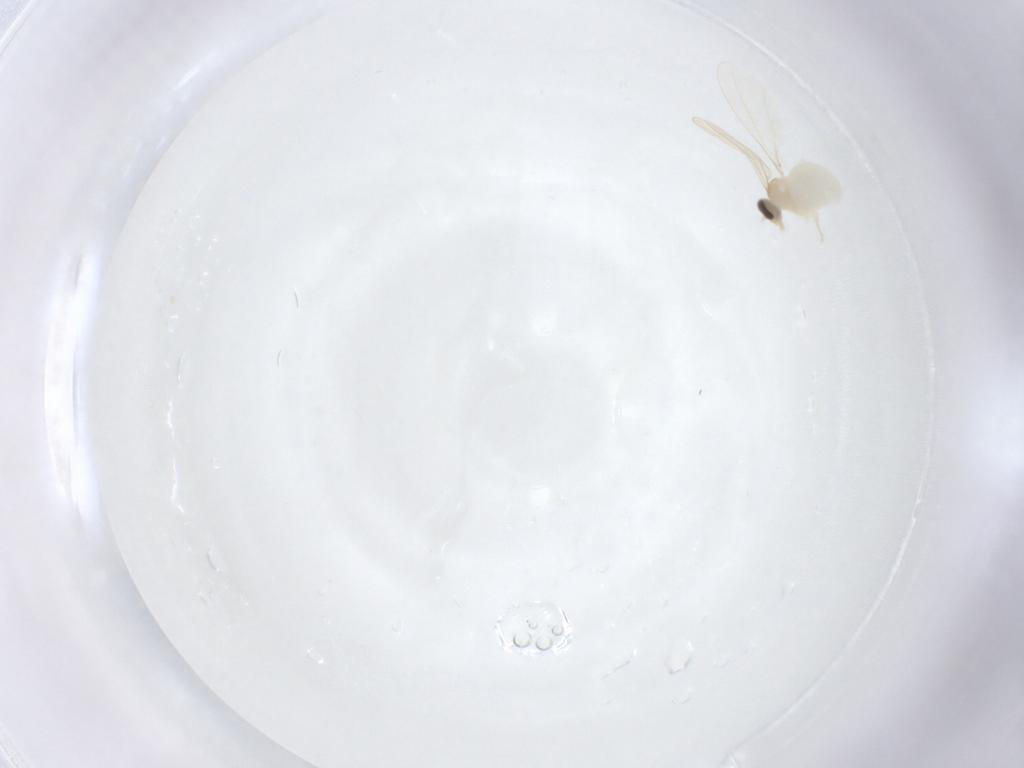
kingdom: Animalia
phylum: Arthropoda
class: Insecta
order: Diptera
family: Cecidomyiidae
